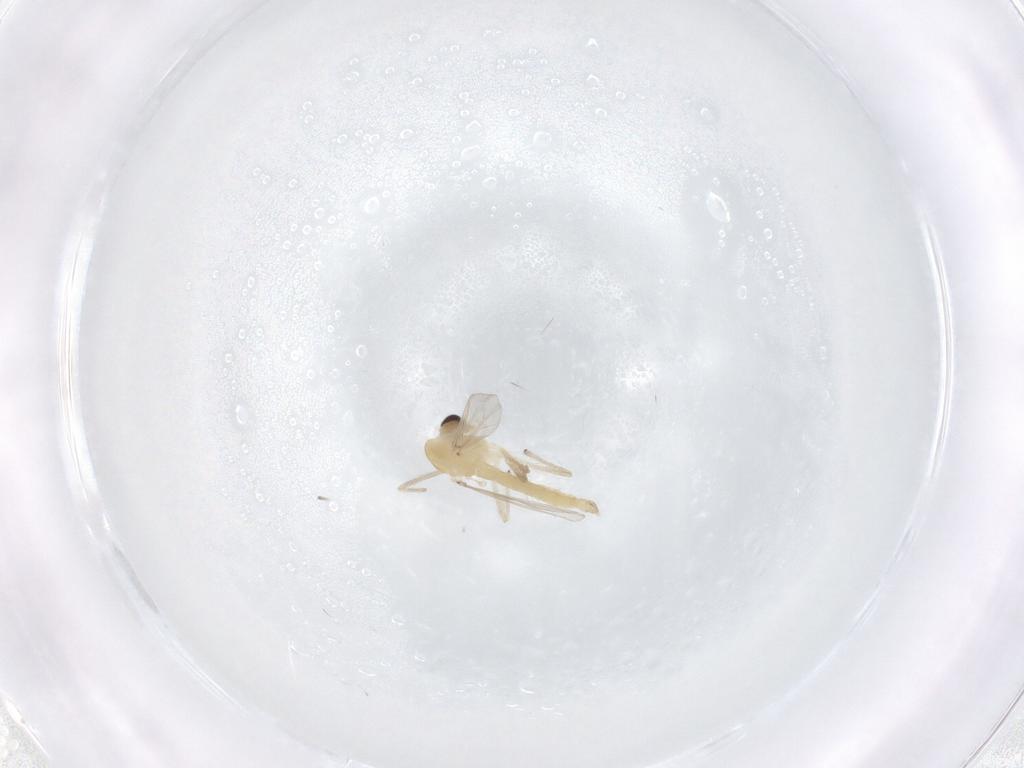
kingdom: Animalia
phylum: Arthropoda
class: Insecta
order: Diptera
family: Chironomidae
